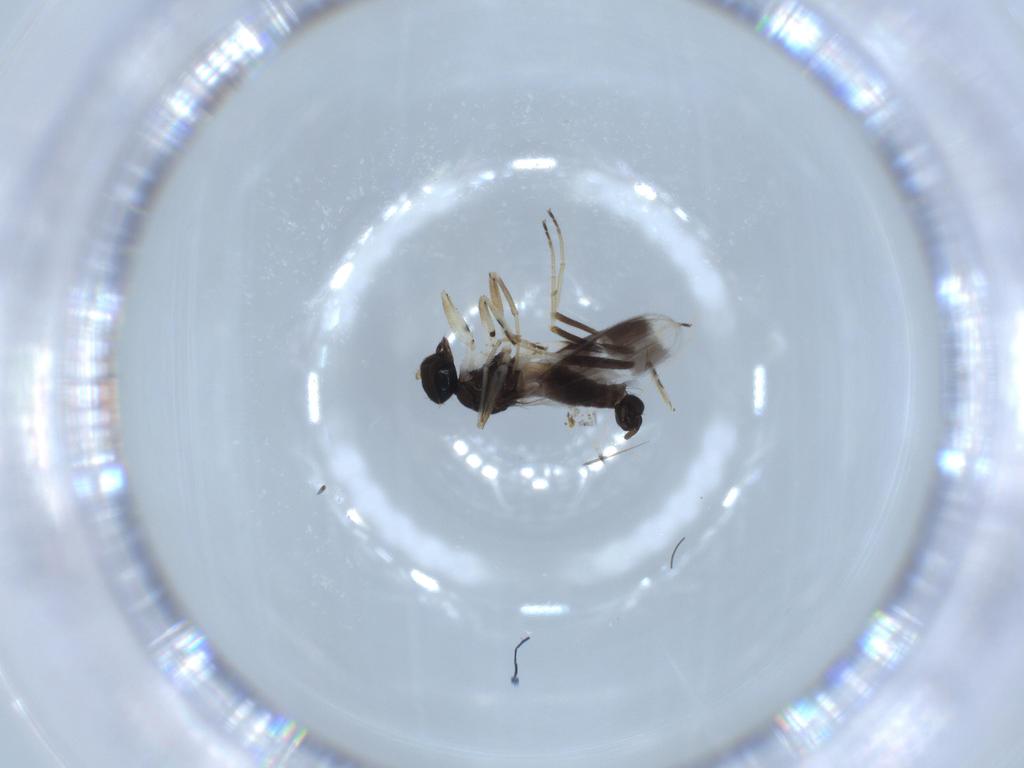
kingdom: Animalia
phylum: Arthropoda
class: Insecta
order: Diptera
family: Hybotidae
